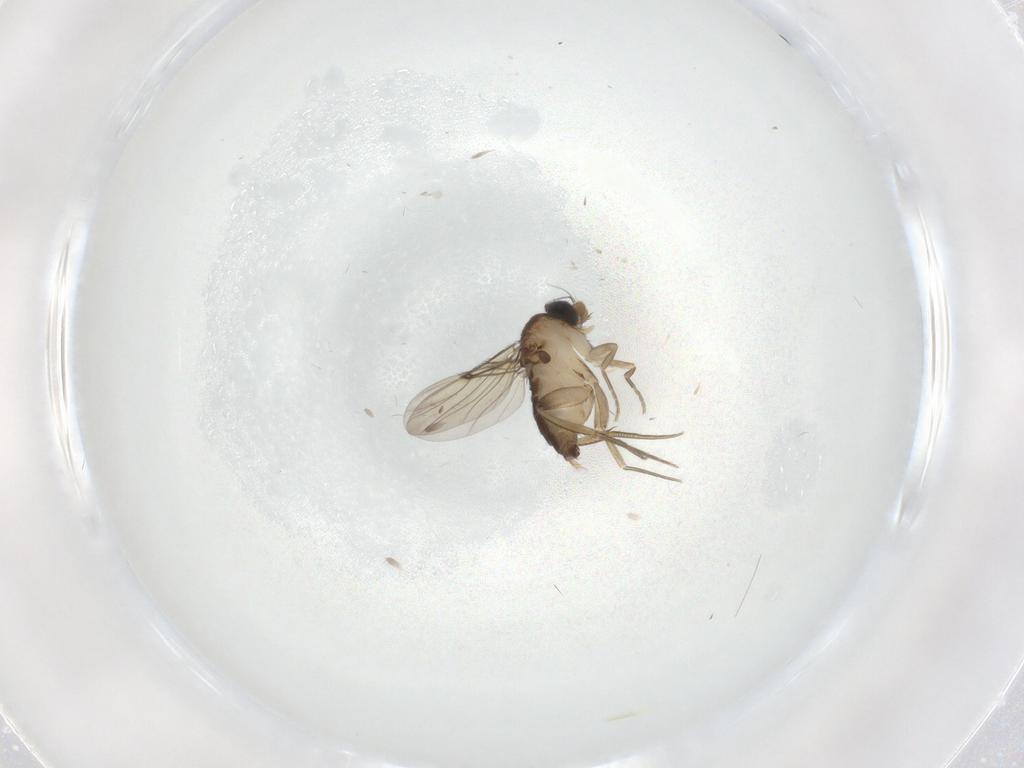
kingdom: Animalia
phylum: Arthropoda
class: Insecta
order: Diptera
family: Phoridae
